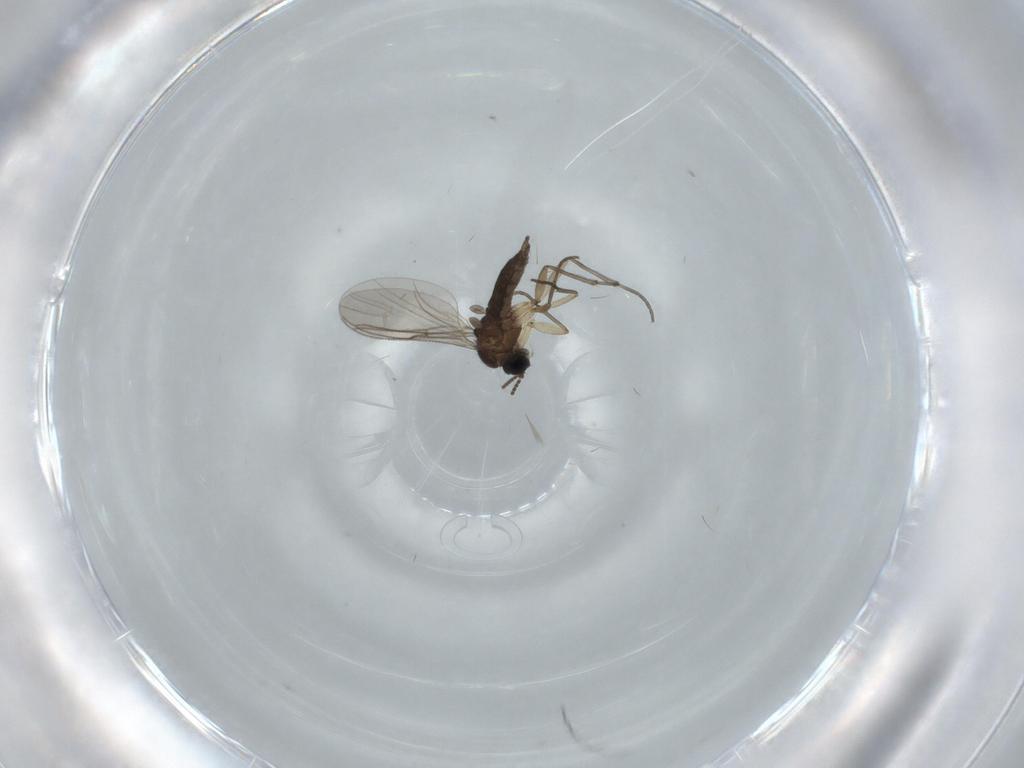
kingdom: Animalia
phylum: Arthropoda
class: Insecta
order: Diptera
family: Sciaridae
